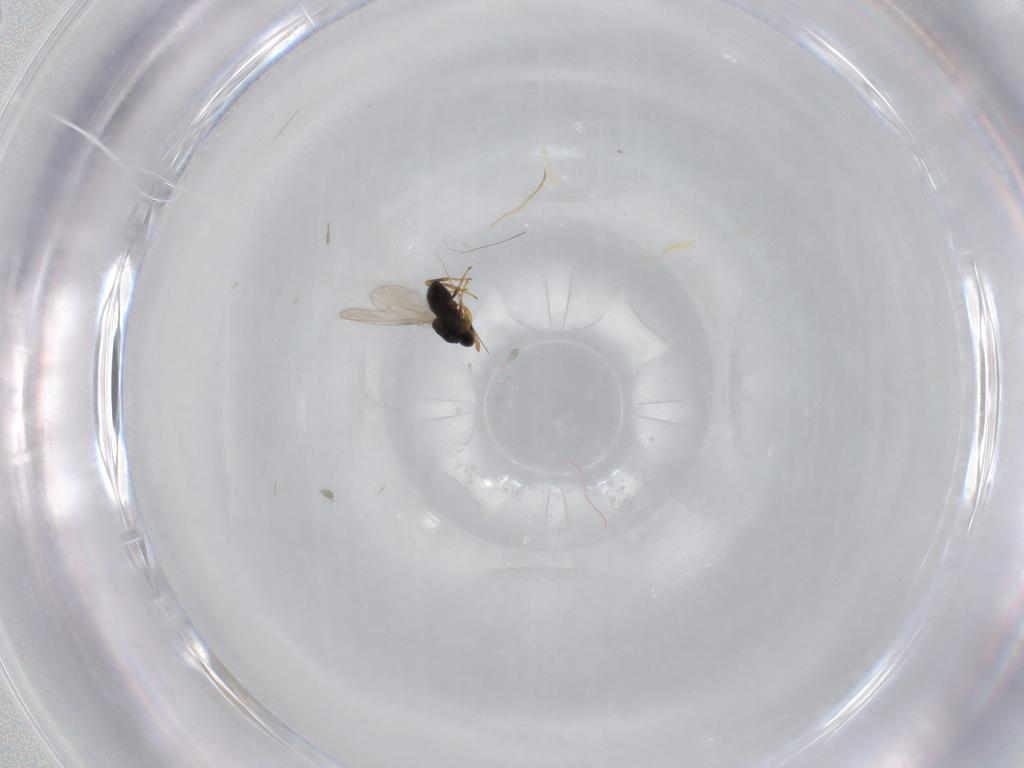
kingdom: Animalia
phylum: Arthropoda
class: Insecta
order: Hymenoptera
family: Platygastridae
